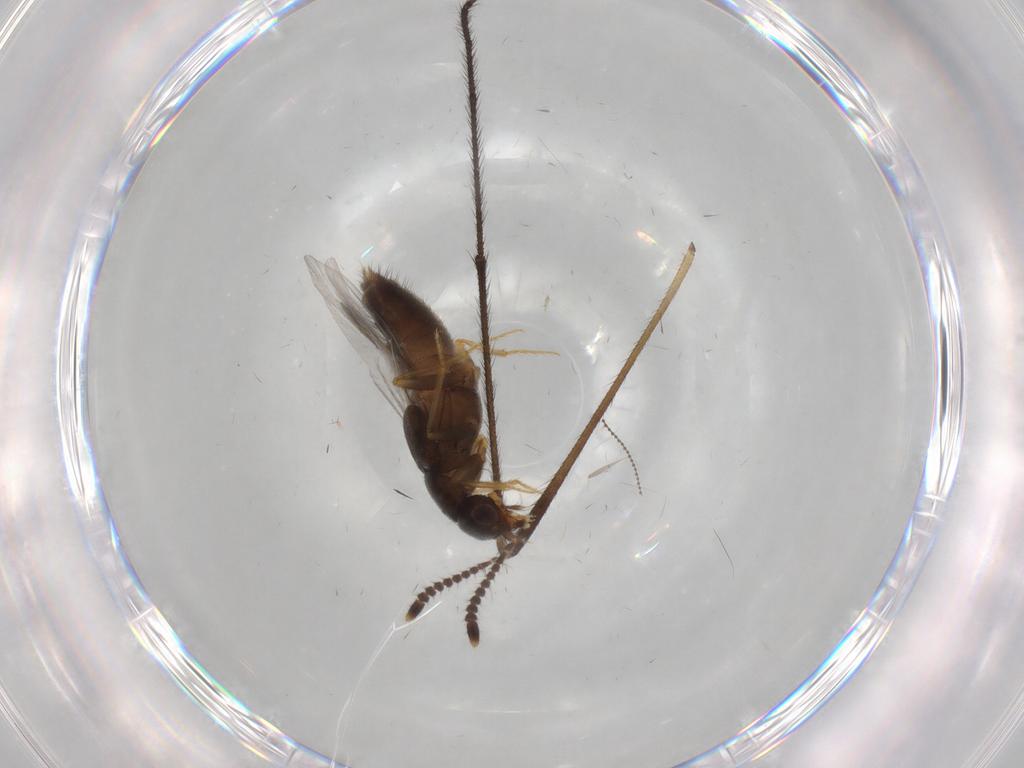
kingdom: Animalia
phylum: Arthropoda
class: Insecta
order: Coleoptera
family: Staphylinidae
